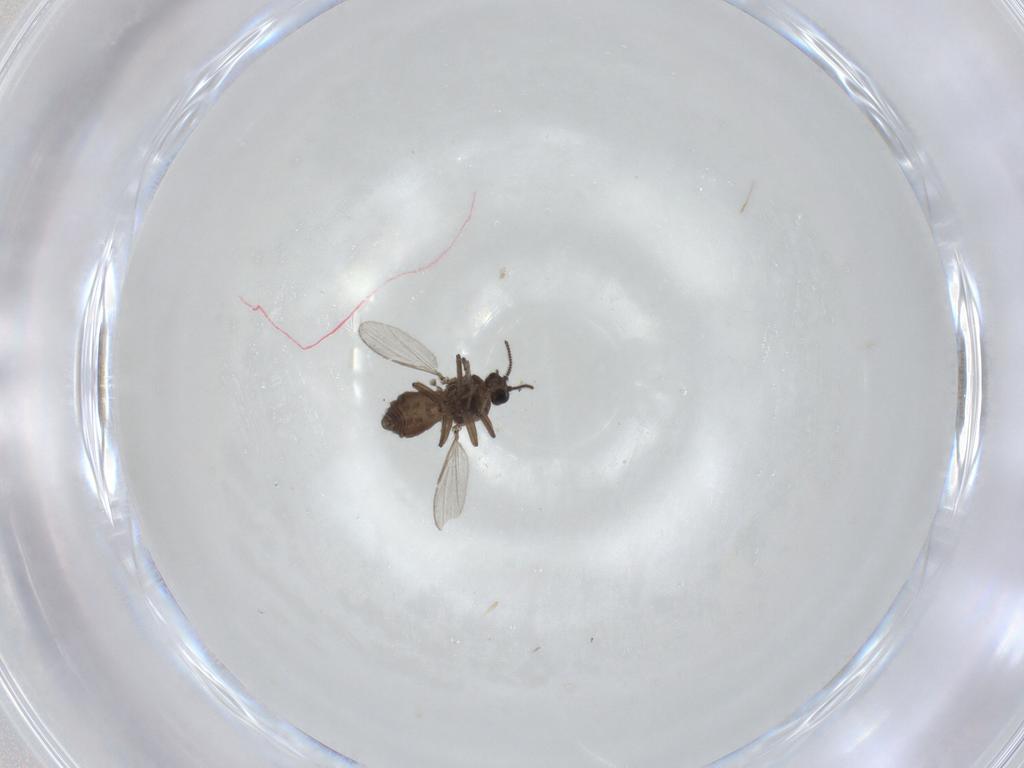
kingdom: Animalia
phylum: Arthropoda
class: Insecta
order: Diptera
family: Ceratopogonidae
